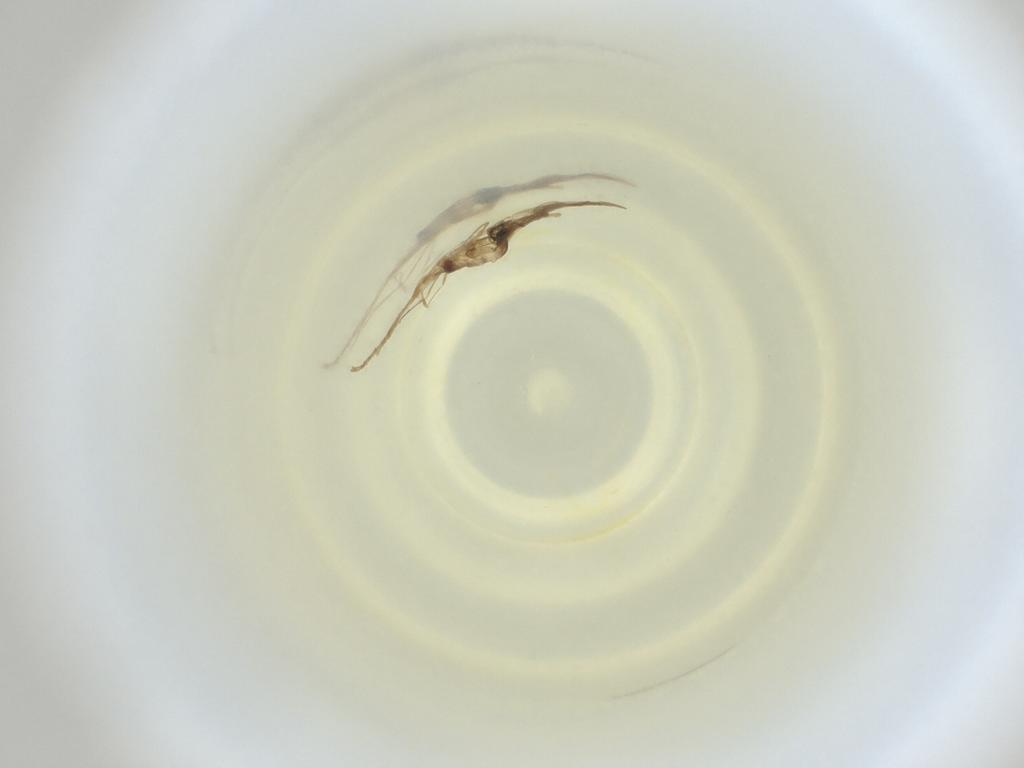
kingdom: Animalia
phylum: Arthropoda
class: Insecta
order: Diptera
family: Cecidomyiidae
